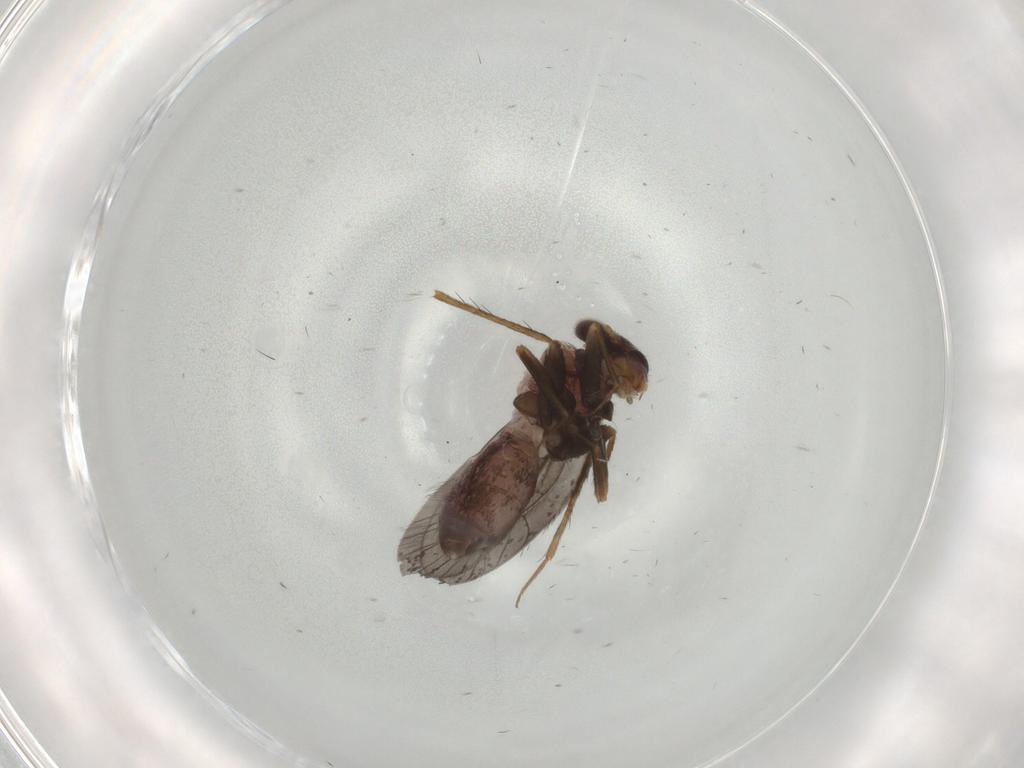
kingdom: Animalia
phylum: Arthropoda
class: Insecta
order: Psocodea
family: Lepidopsocidae
